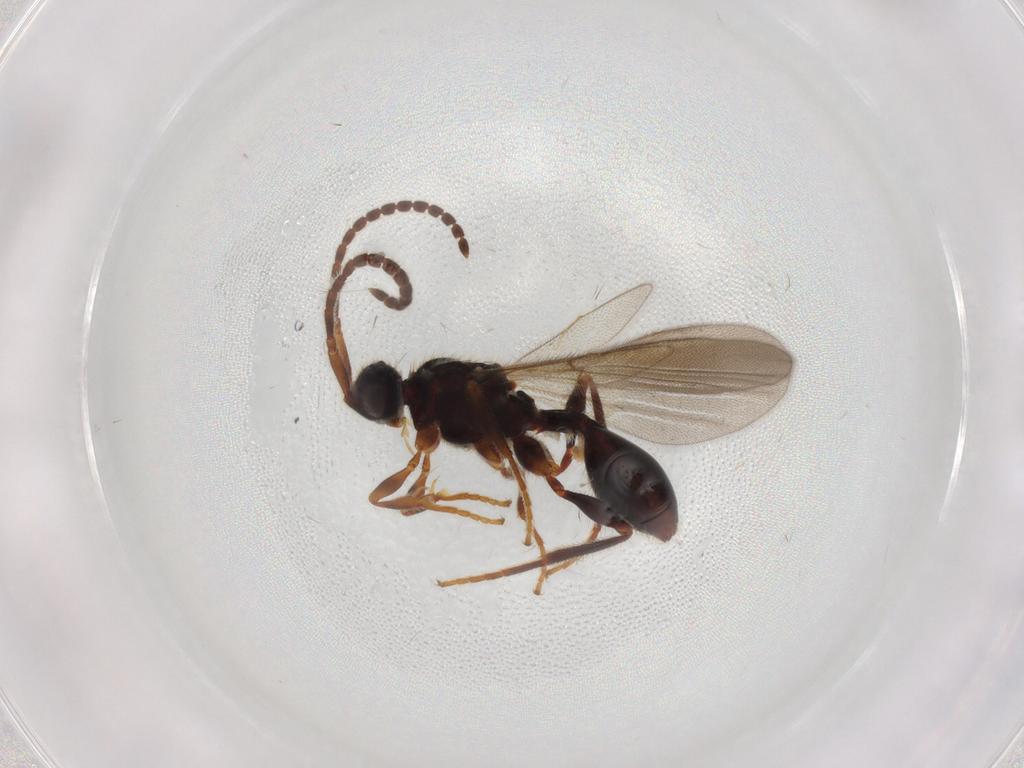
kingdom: Animalia
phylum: Arthropoda
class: Insecta
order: Hymenoptera
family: Diapriidae
